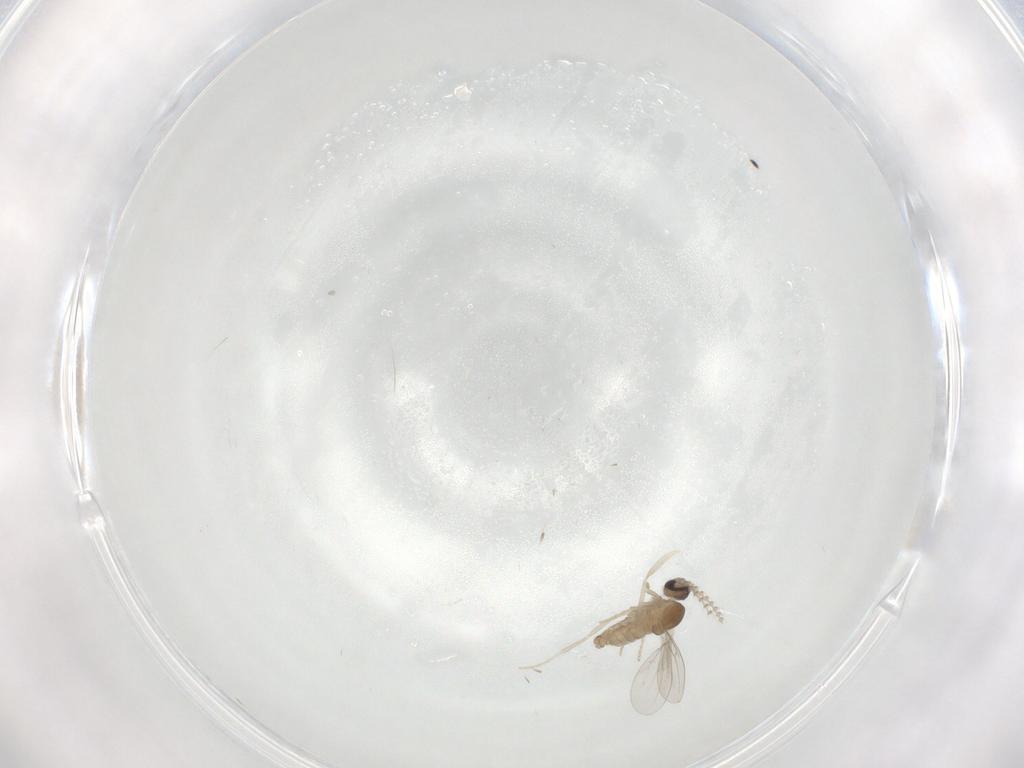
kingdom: Animalia
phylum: Arthropoda
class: Insecta
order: Diptera
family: Cecidomyiidae
